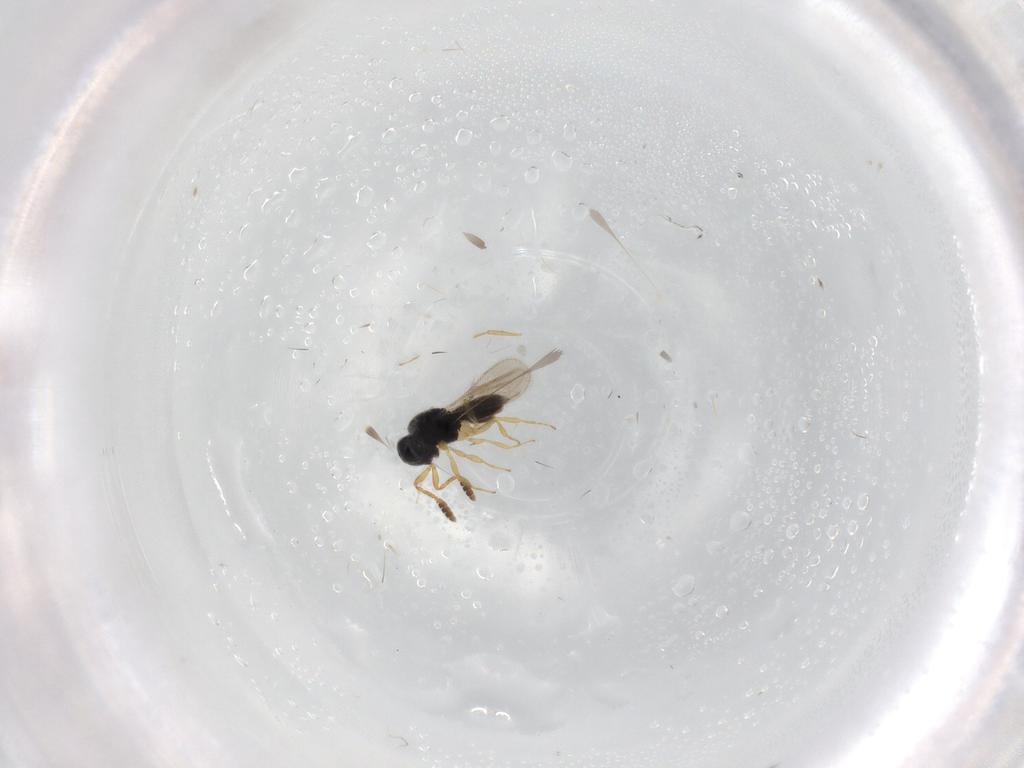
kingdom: Animalia
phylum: Arthropoda
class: Insecta
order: Hymenoptera
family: Scelionidae
